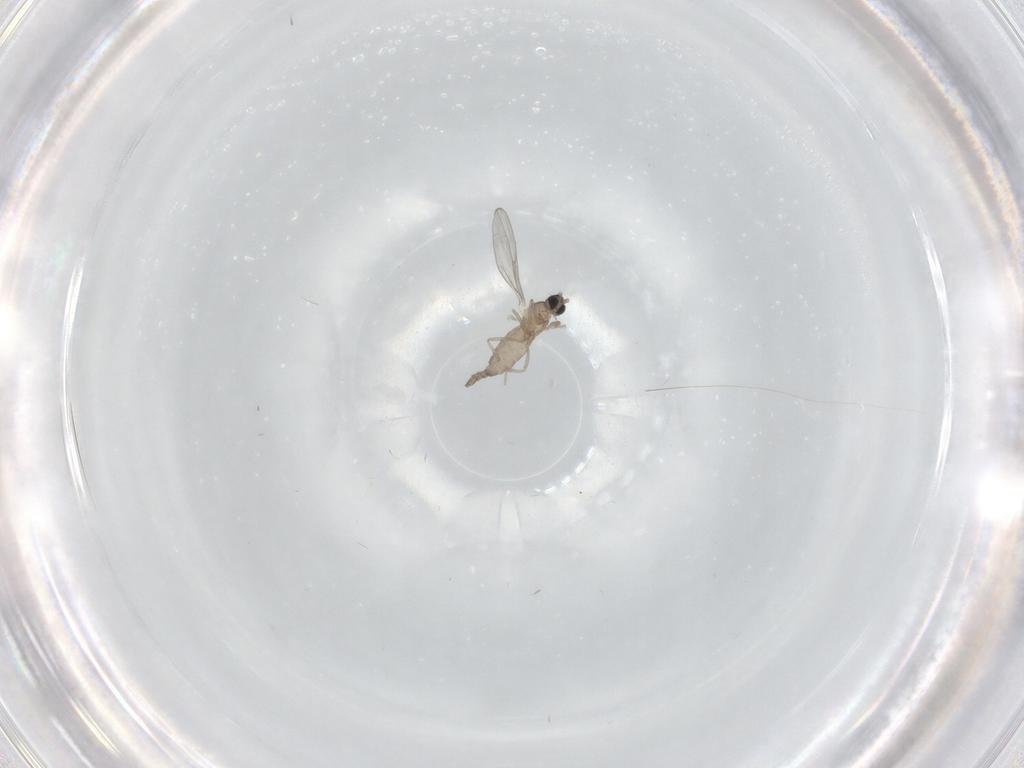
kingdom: Animalia
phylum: Arthropoda
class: Insecta
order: Diptera
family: Cecidomyiidae
